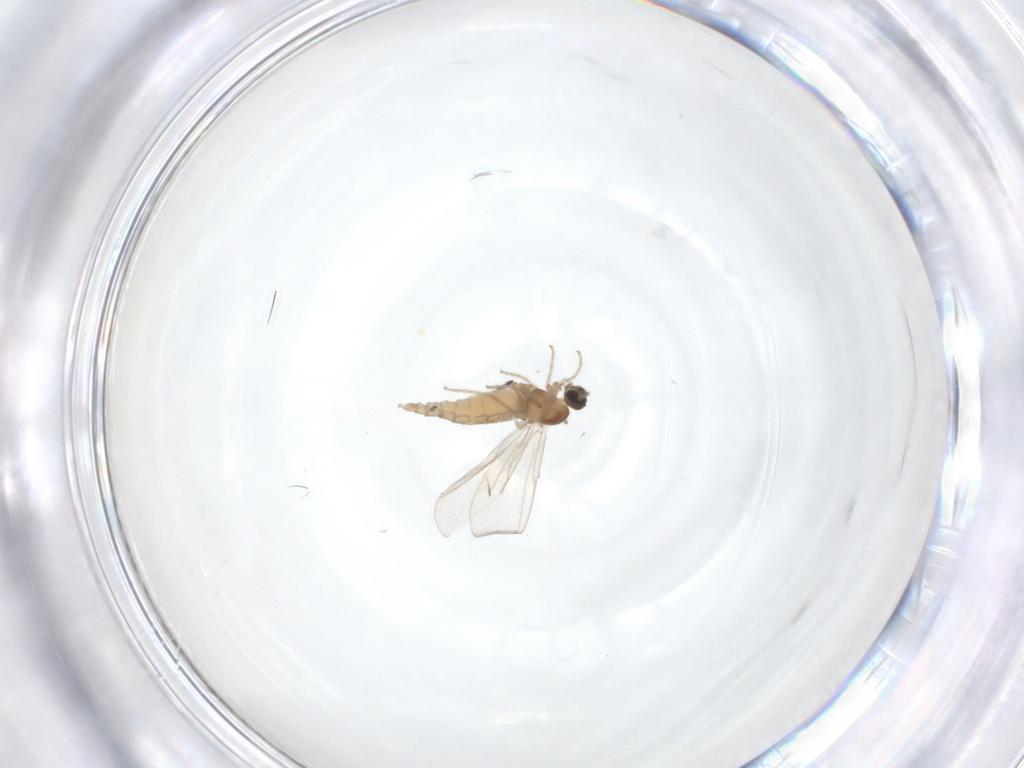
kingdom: Animalia
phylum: Arthropoda
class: Insecta
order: Diptera
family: Cecidomyiidae
